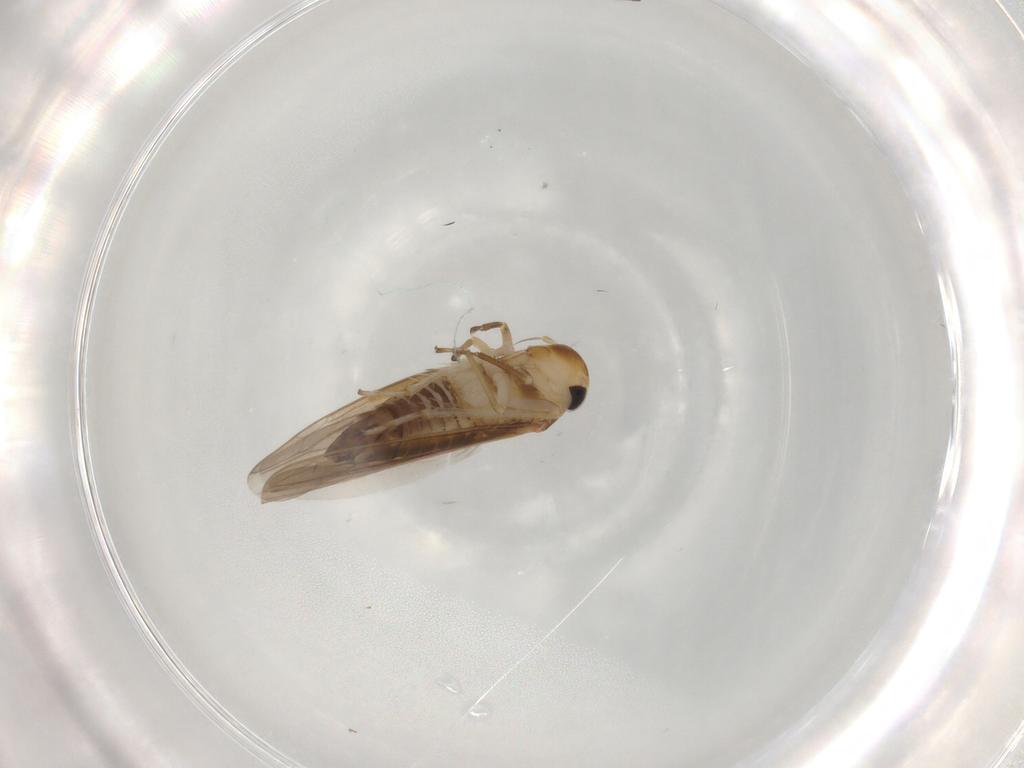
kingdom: Animalia
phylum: Arthropoda
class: Insecta
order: Hemiptera
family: Cicadellidae
